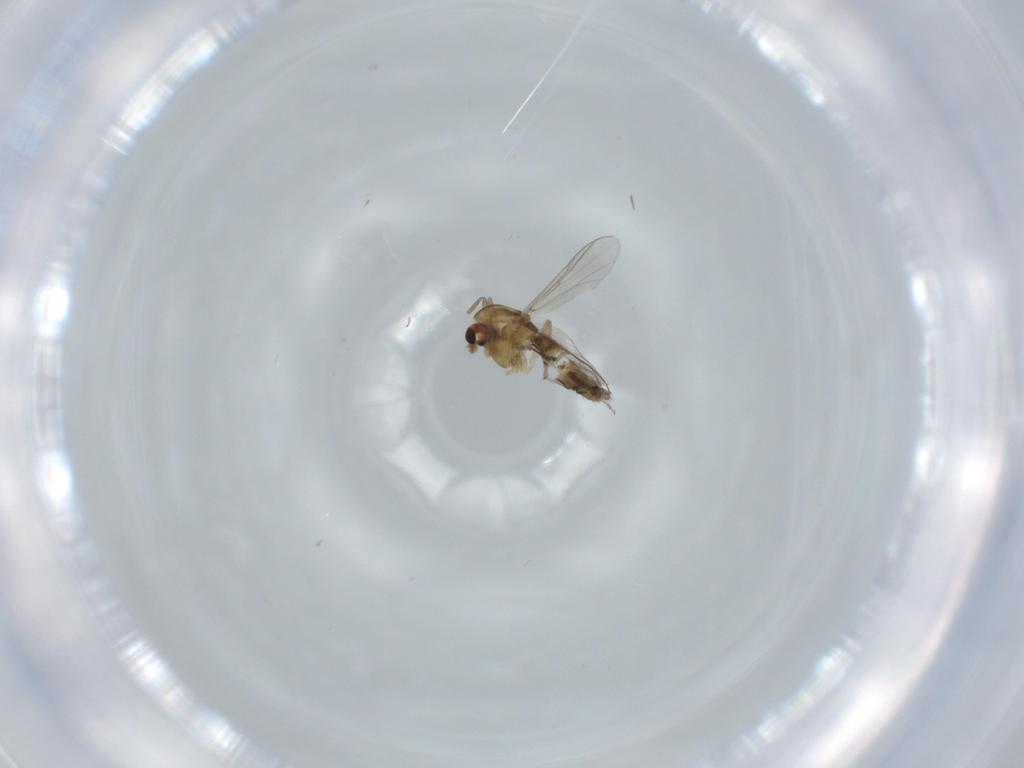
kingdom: Animalia
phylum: Arthropoda
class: Insecta
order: Diptera
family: Chironomidae
